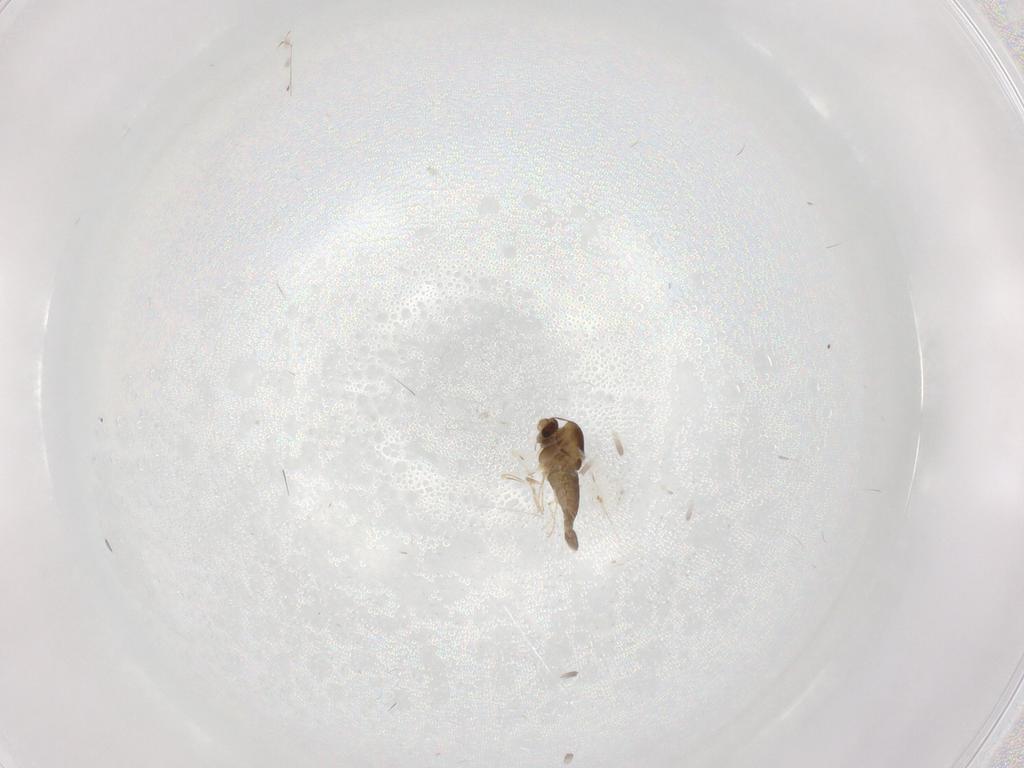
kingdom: Animalia
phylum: Arthropoda
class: Insecta
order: Diptera
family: Chironomidae
